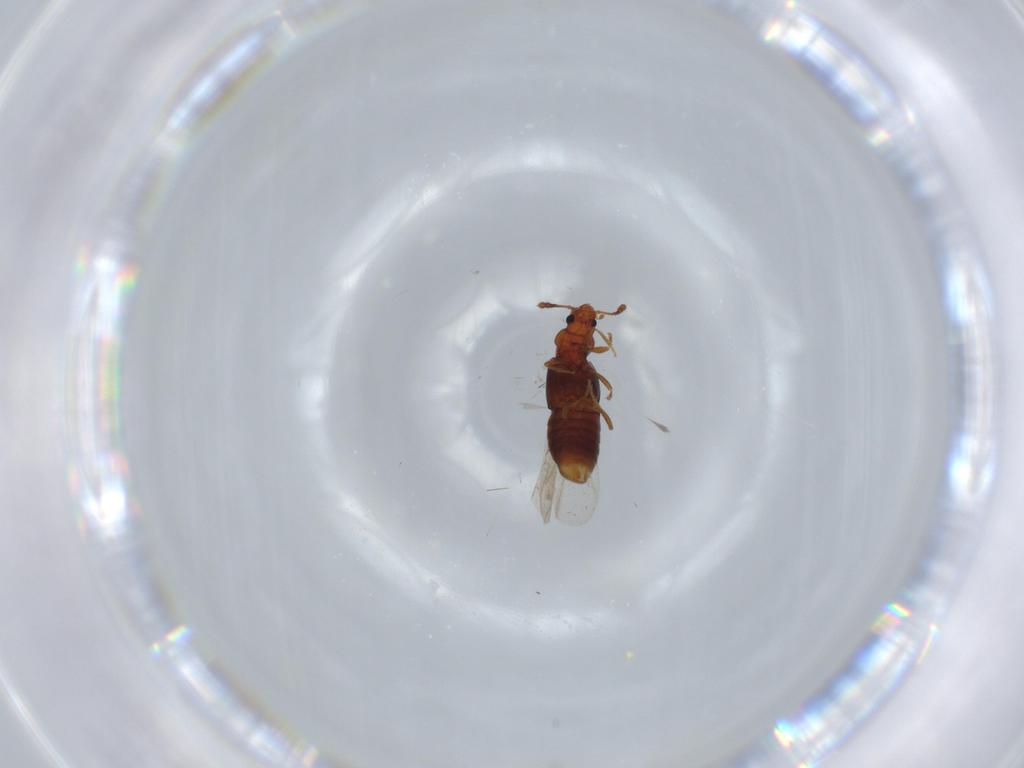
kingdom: Animalia
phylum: Arthropoda
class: Insecta
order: Coleoptera
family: Staphylinidae
